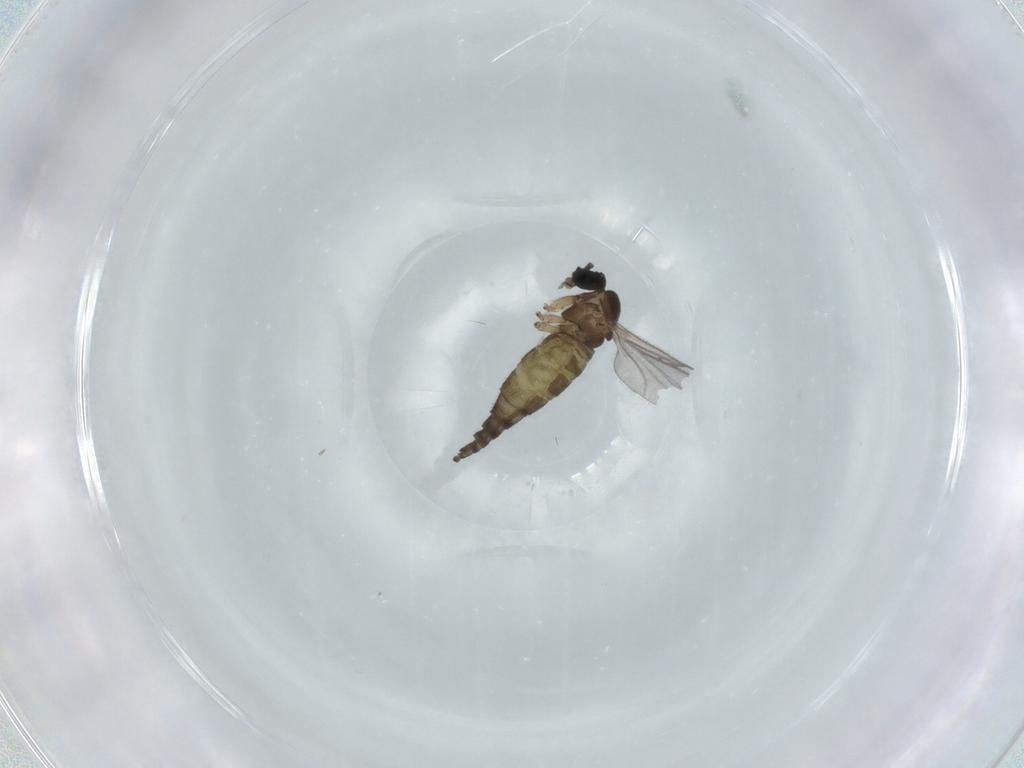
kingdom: Animalia
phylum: Arthropoda
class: Insecta
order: Diptera
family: Sciaridae
